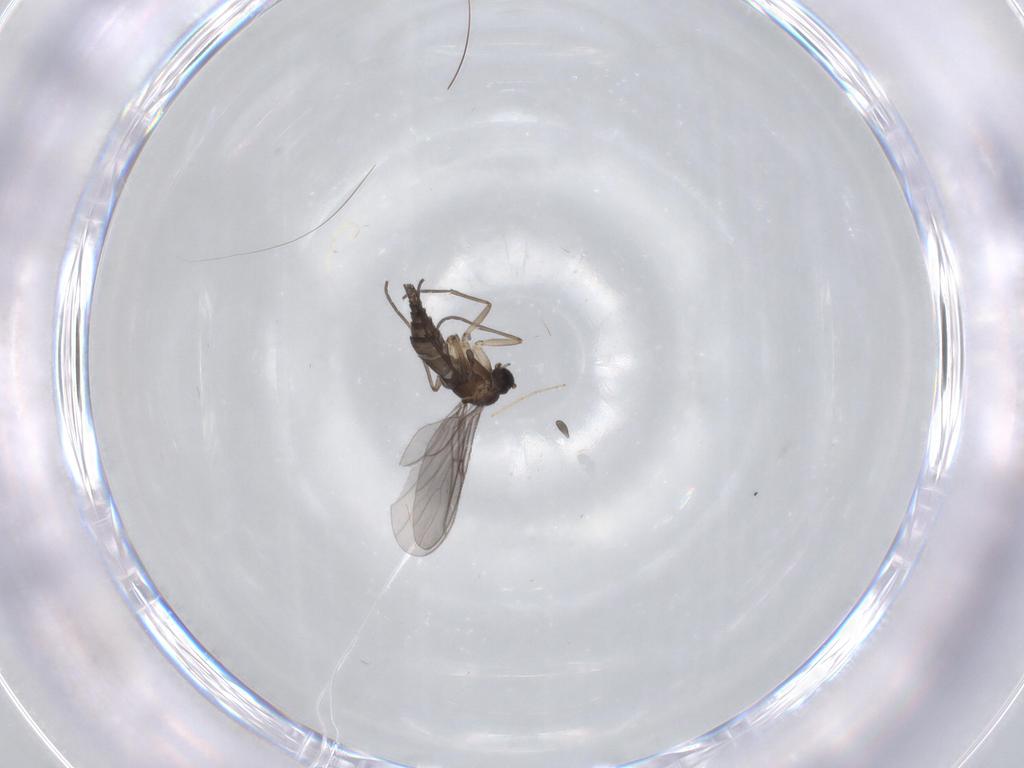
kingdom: Animalia
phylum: Arthropoda
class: Insecta
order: Diptera
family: Sciaridae
